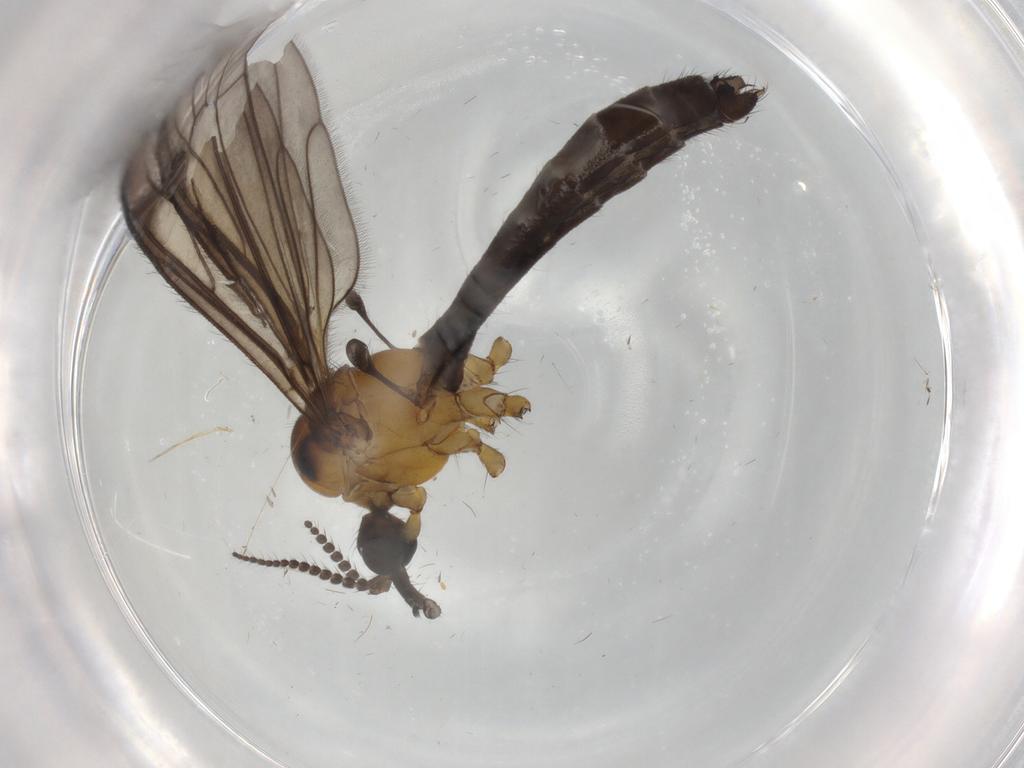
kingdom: Animalia
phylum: Arthropoda
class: Insecta
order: Diptera
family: Limoniidae
